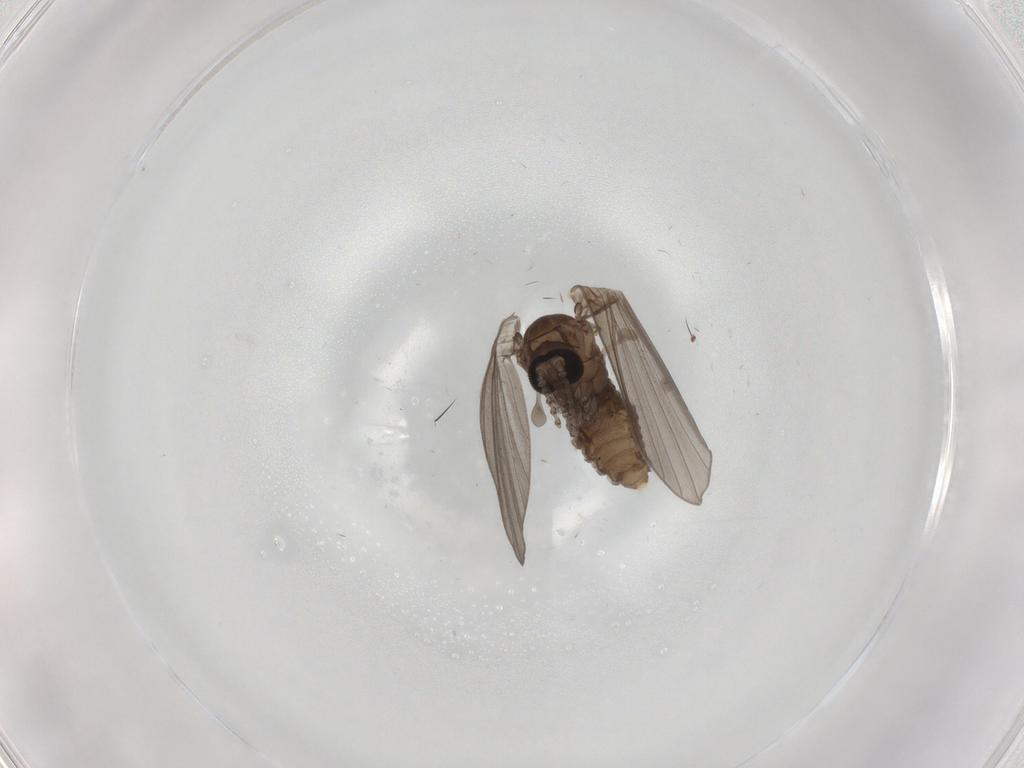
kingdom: Animalia
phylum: Arthropoda
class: Insecta
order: Diptera
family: Psychodidae
